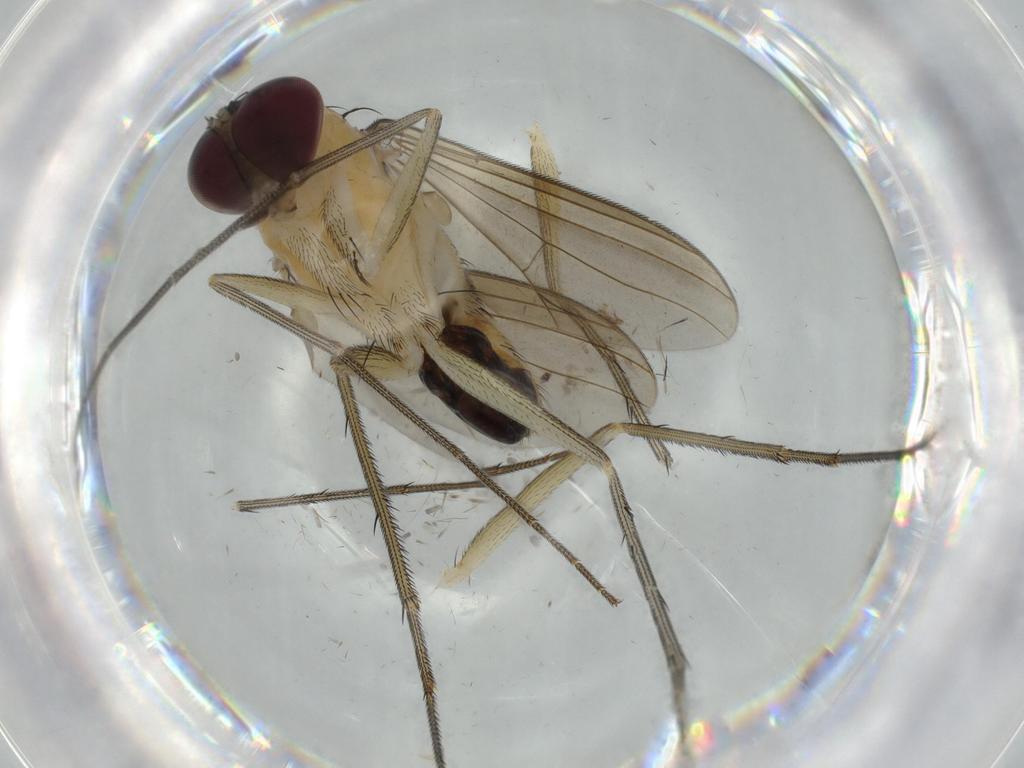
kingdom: Animalia
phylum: Arthropoda
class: Insecta
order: Diptera
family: Dolichopodidae
